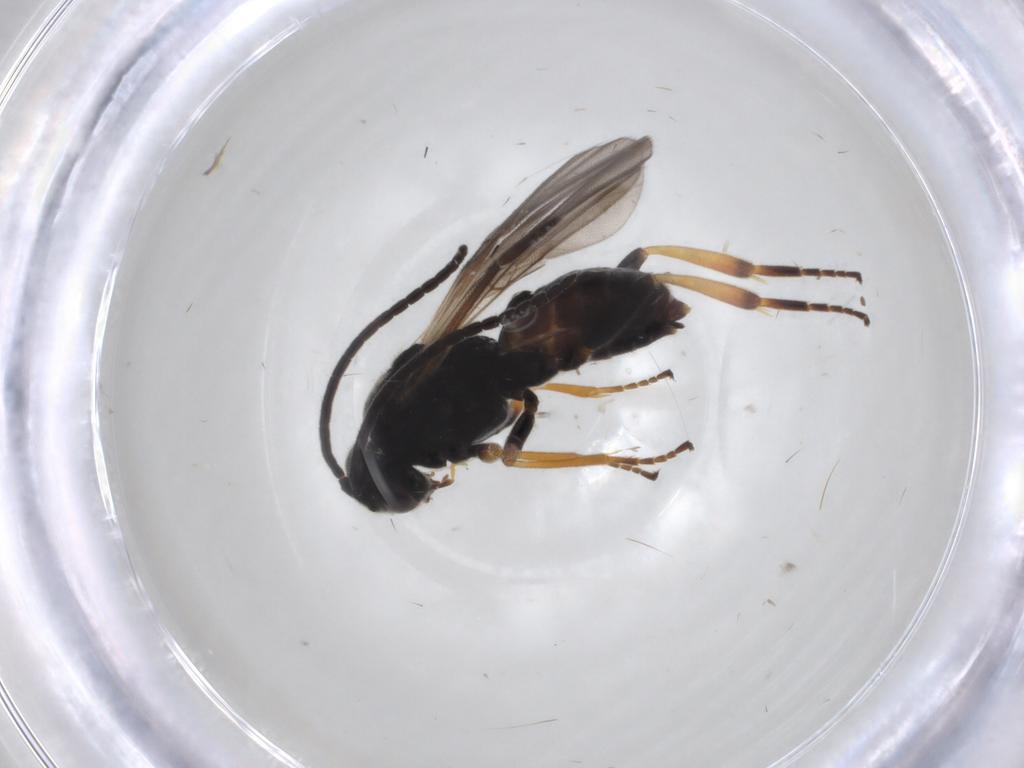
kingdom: Animalia
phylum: Arthropoda
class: Insecta
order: Hymenoptera
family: Braconidae
